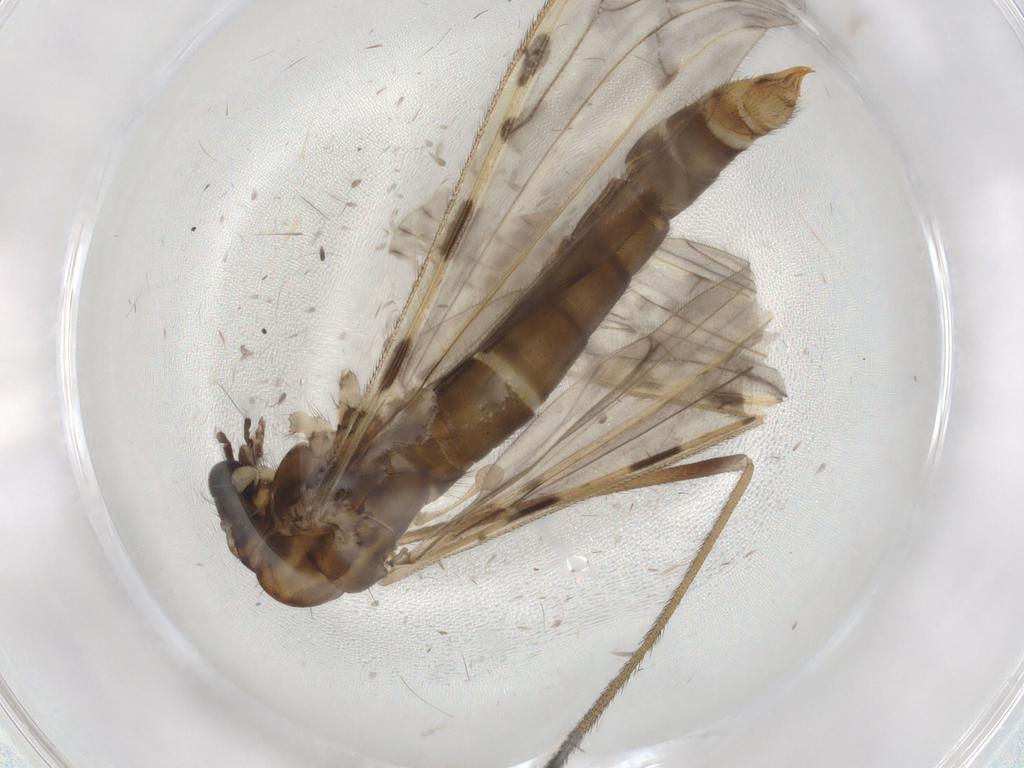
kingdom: Animalia
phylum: Arthropoda
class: Insecta
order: Diptera
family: Limoniidae
